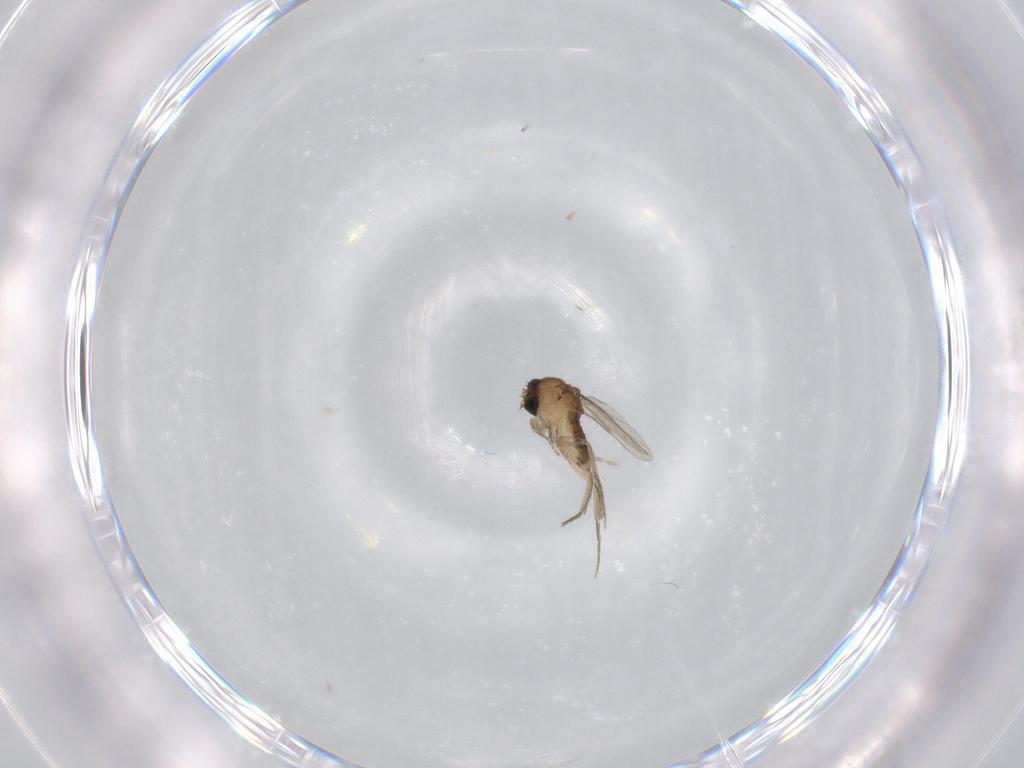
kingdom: Animalia
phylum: Arthropoda
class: Insecta
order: Diptera
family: Phoridae
